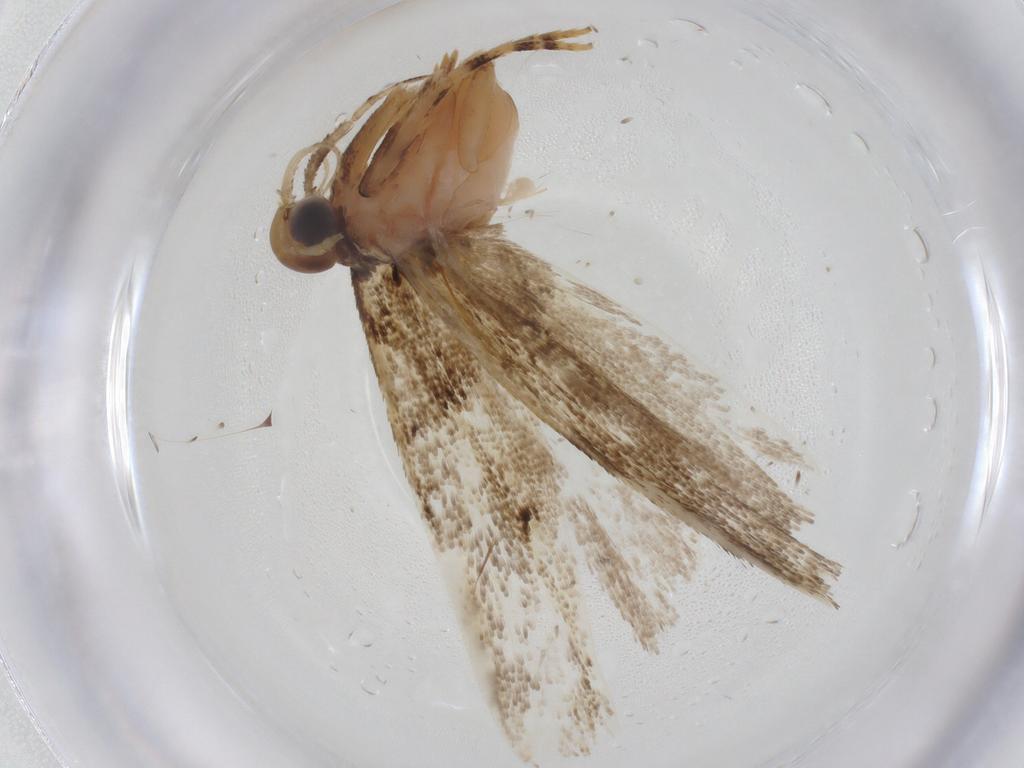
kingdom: Animalia
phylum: Arthropoda
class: Insecta
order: Lepidoptera
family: Gelechiidae
